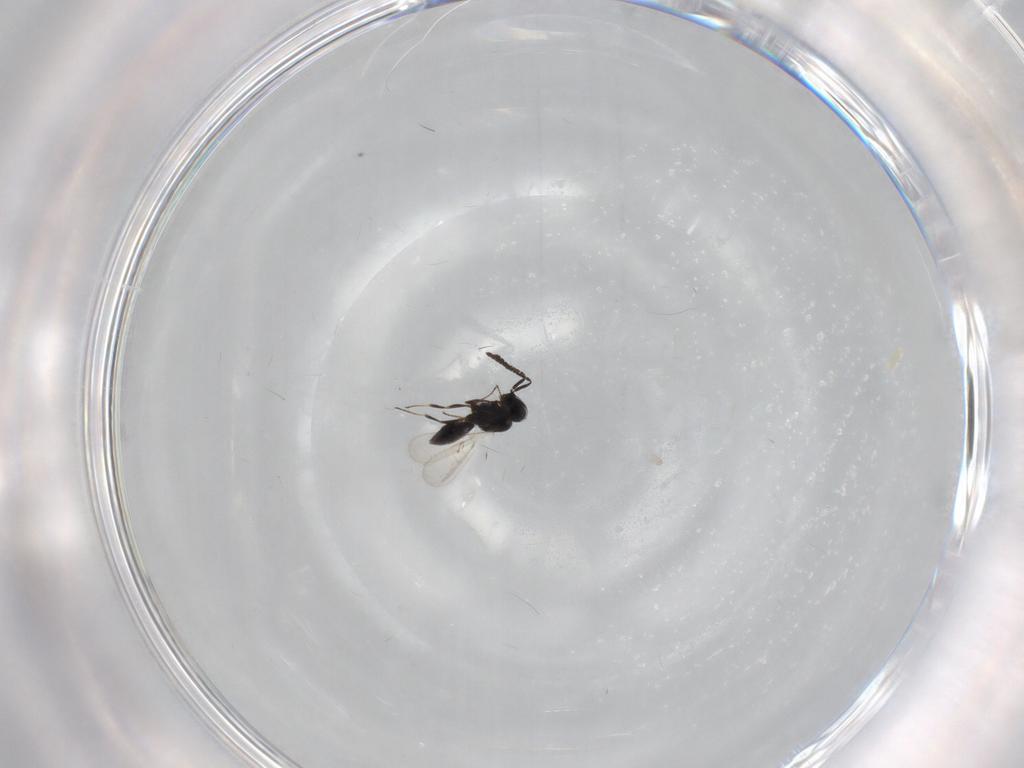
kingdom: Animalia
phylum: Arthropoda
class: Insecta
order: Hymenoptera
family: Scelionidae
